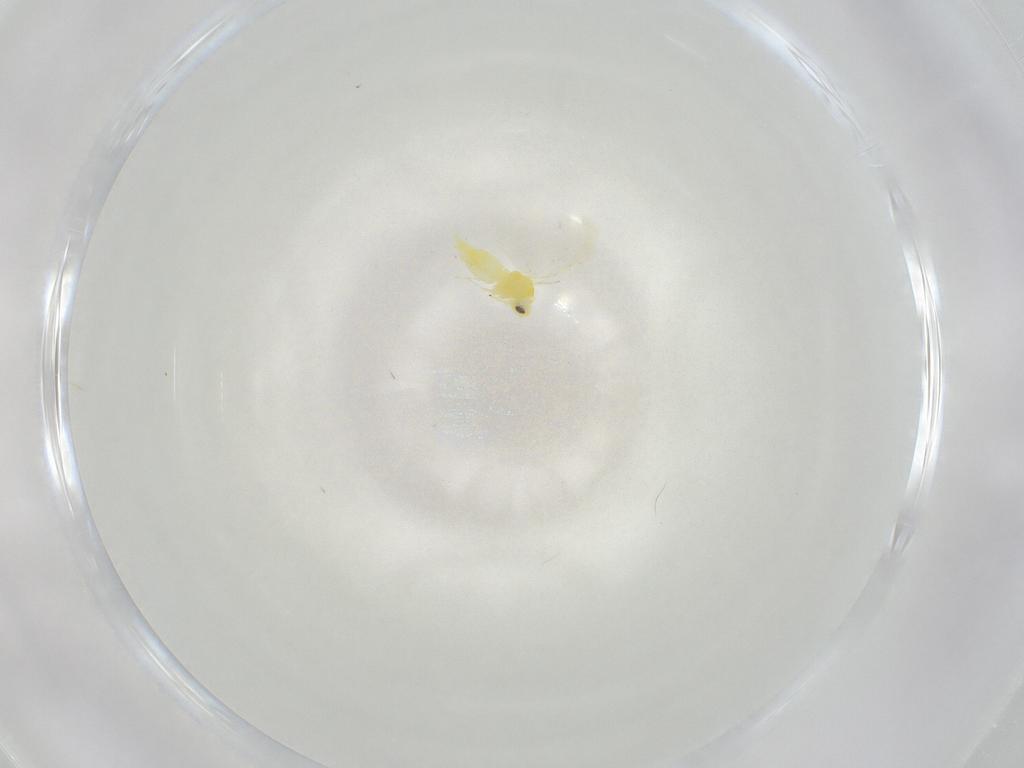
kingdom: Animalia
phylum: Arthropoda
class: Insecta
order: Hemiptera
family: Aleyrodidae
